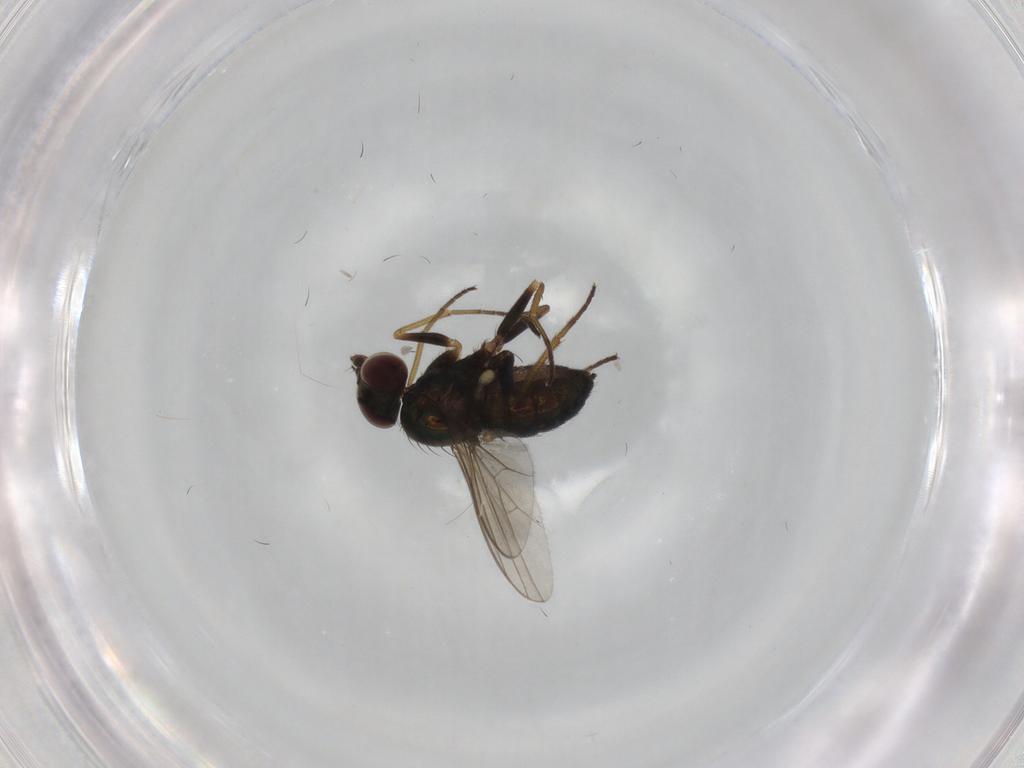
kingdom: Animalia
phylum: Arthropoda
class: Insecta
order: Diptera
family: Dolichopodidae
